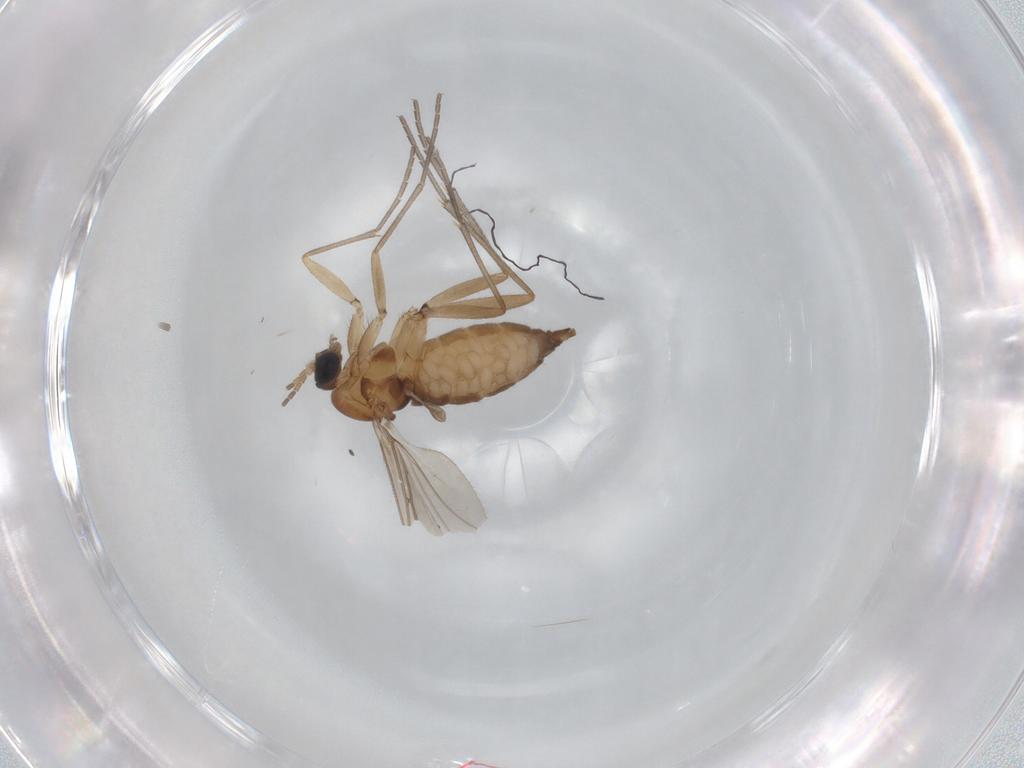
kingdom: Animalia
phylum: Arthropoda
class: Insecta
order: Diptera
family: Sciaridae
